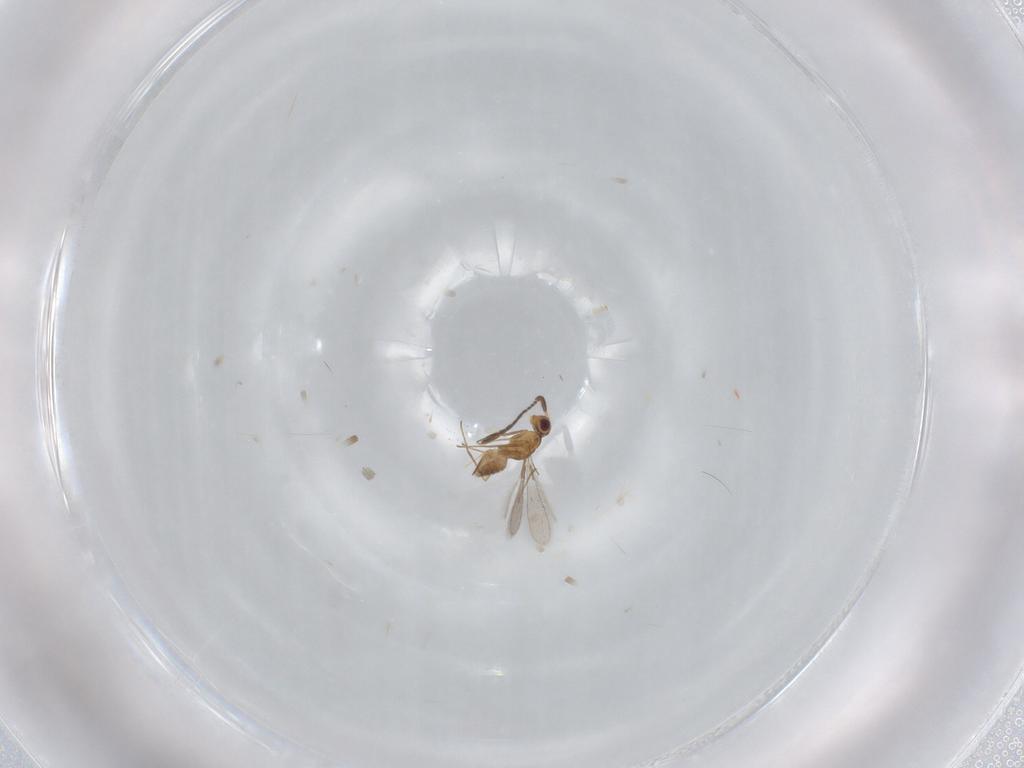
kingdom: Animalia
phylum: Arthropoda
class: Insecta
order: Hymenoptera
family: Mymaridae
